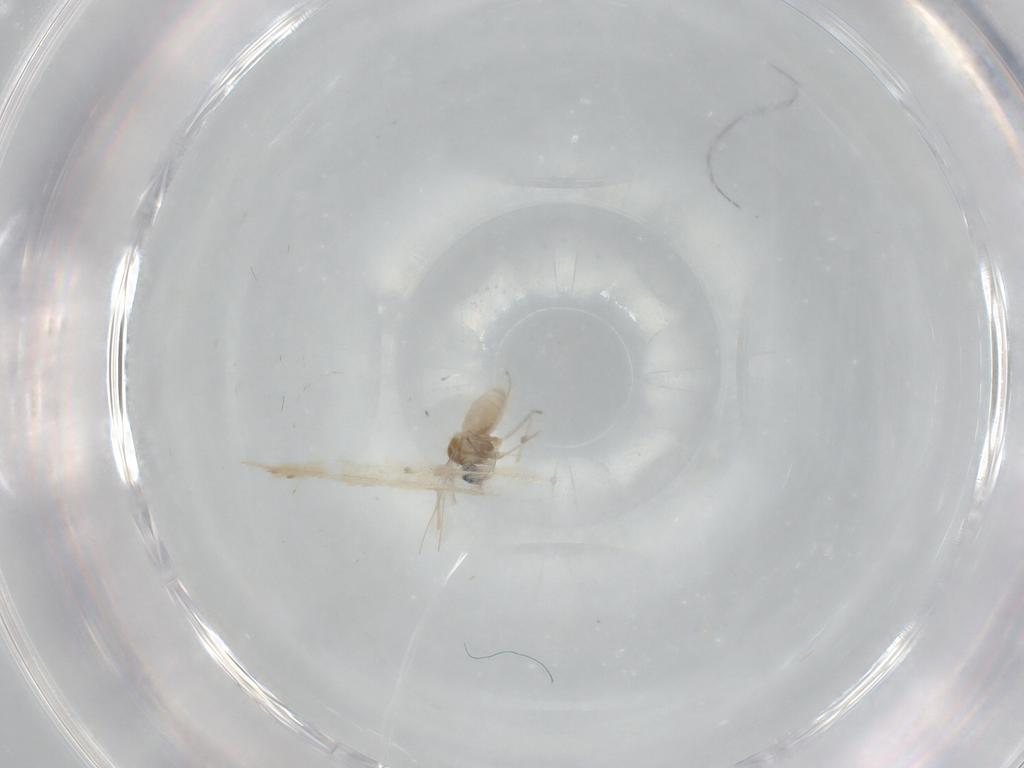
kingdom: Animalia
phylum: Arthropoda
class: Insecta
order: Diptera
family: Cecidomyiidae
